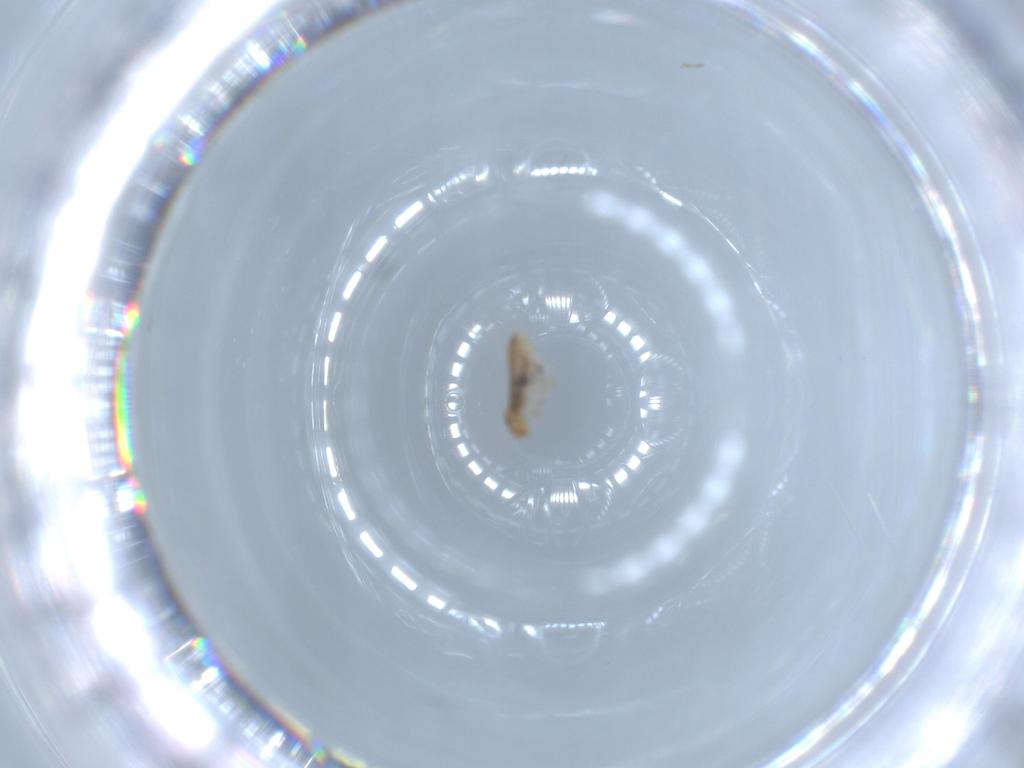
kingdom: Animalia
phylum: Arthropoda
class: Insecta
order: Psocodea
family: Liposcelididae
